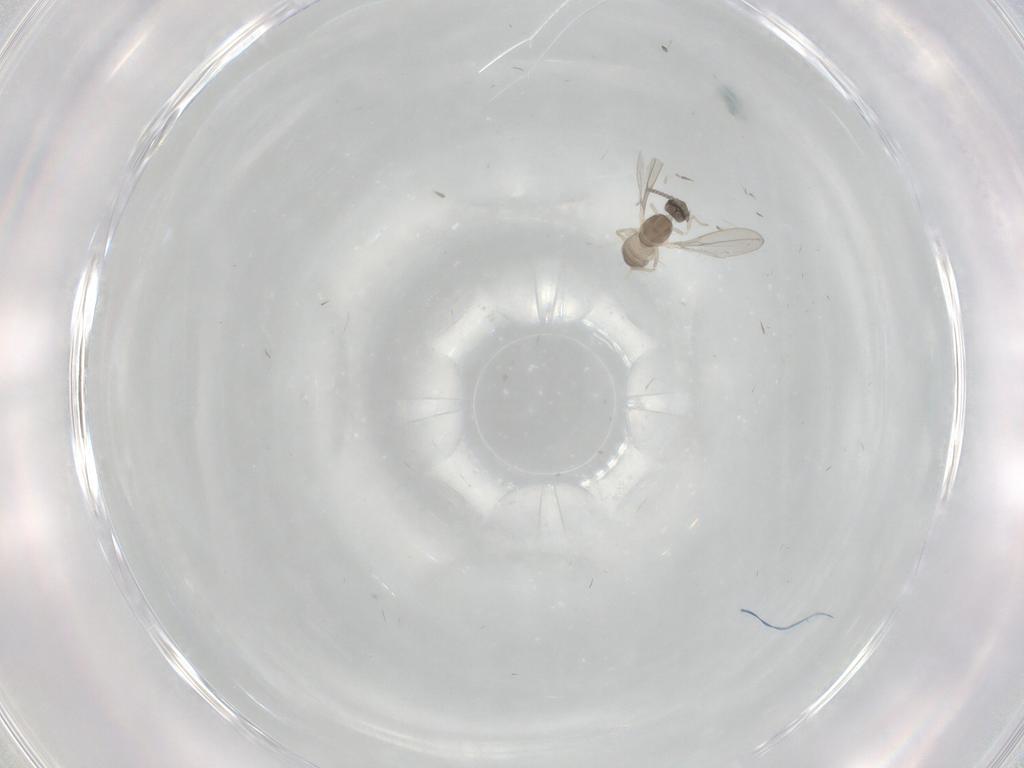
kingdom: Animalia
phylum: Arthropoda
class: Insecta
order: Diptera
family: Cecidomyiidae
